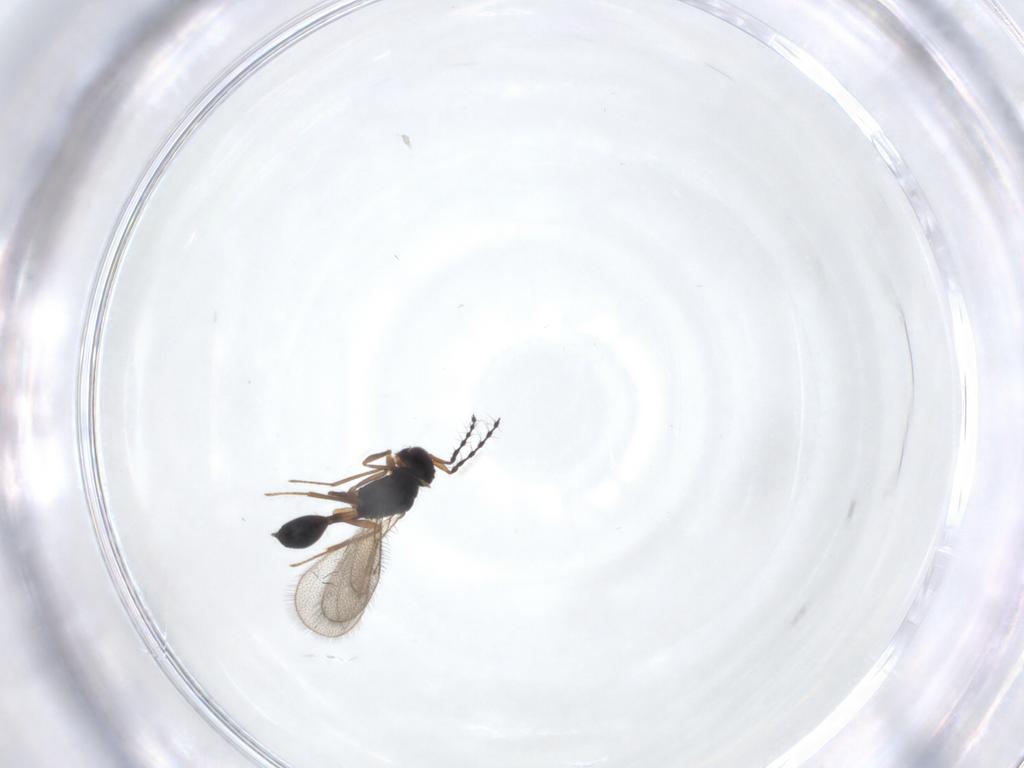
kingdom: Animalia
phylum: Arthropoda
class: Insecta
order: Hymenoptera
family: Diparidae
